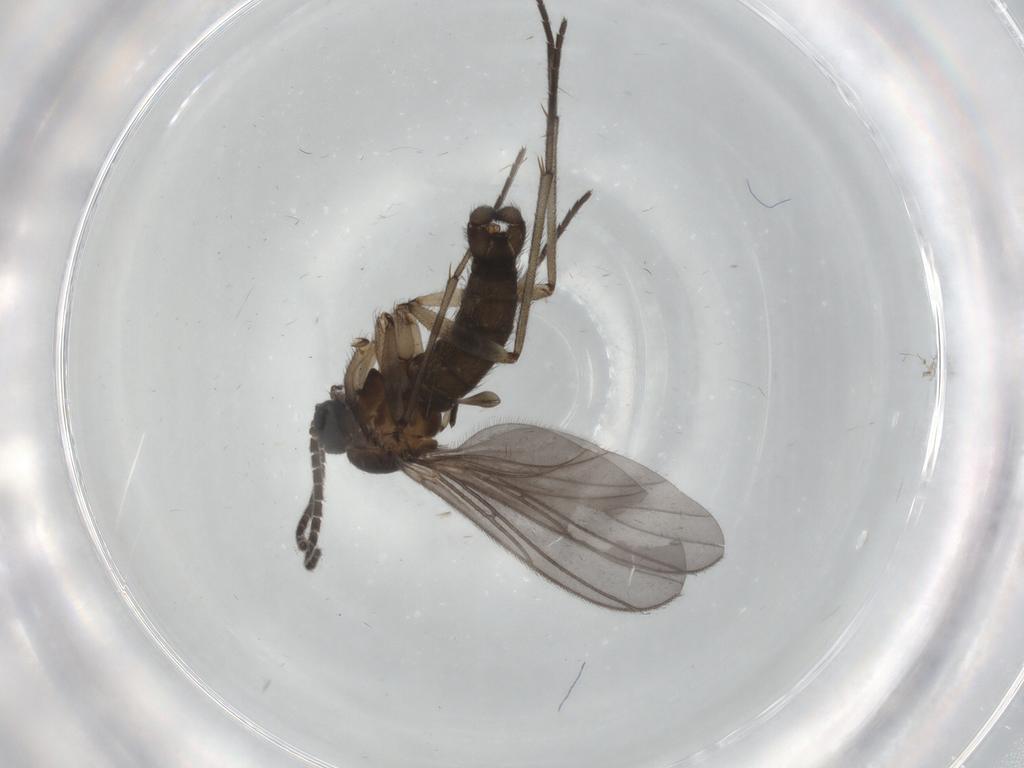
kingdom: Animalia
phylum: Arthropoda
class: Insecta
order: Diptera
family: Sciaridae
